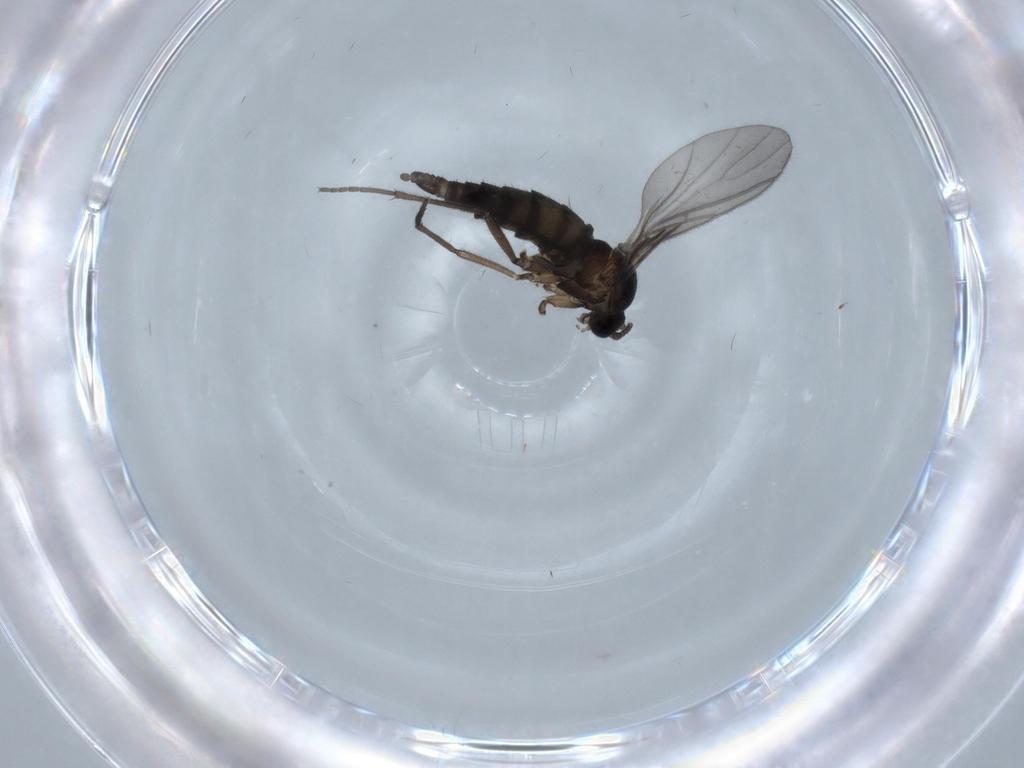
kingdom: Animalia
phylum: Arthropoda
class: Insecta
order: Diptera
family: Sciaridae
